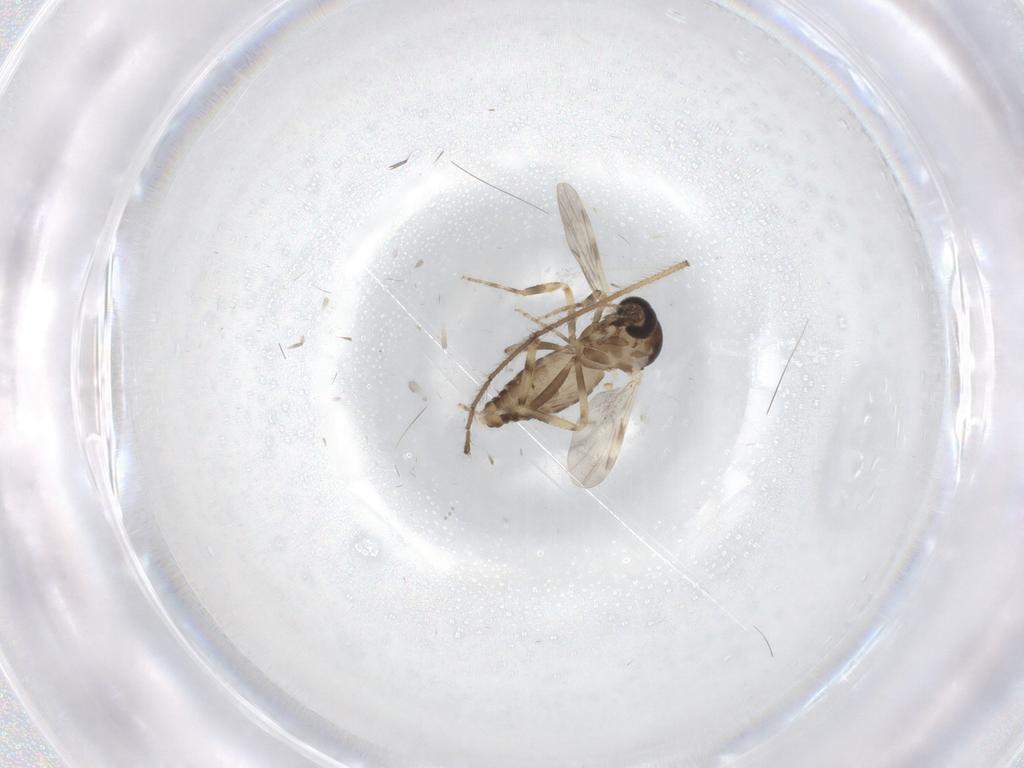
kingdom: Animalia
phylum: Arthropoda
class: Insecta
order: Diptera
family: Ceratopogonidae
